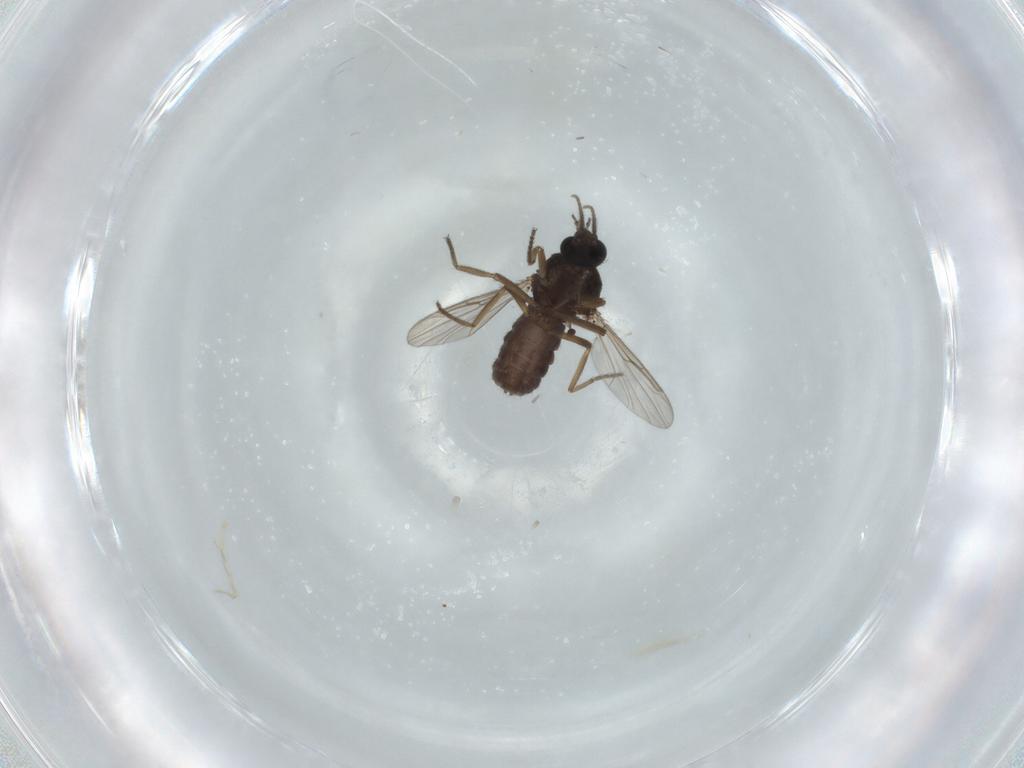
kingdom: Animalia
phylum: Arthropoda
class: Insecta
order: Diptera
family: Ceratopogonidae
